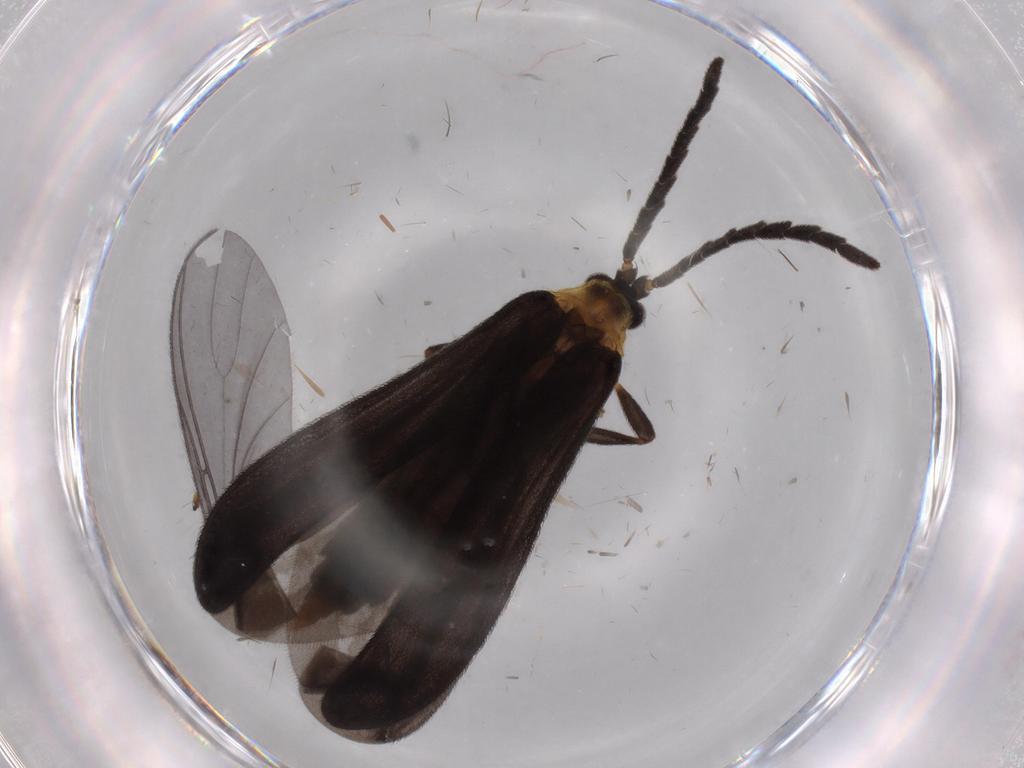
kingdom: Animalia
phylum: Arthropoda
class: Insecta
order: Coleoptera
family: Lycidae
